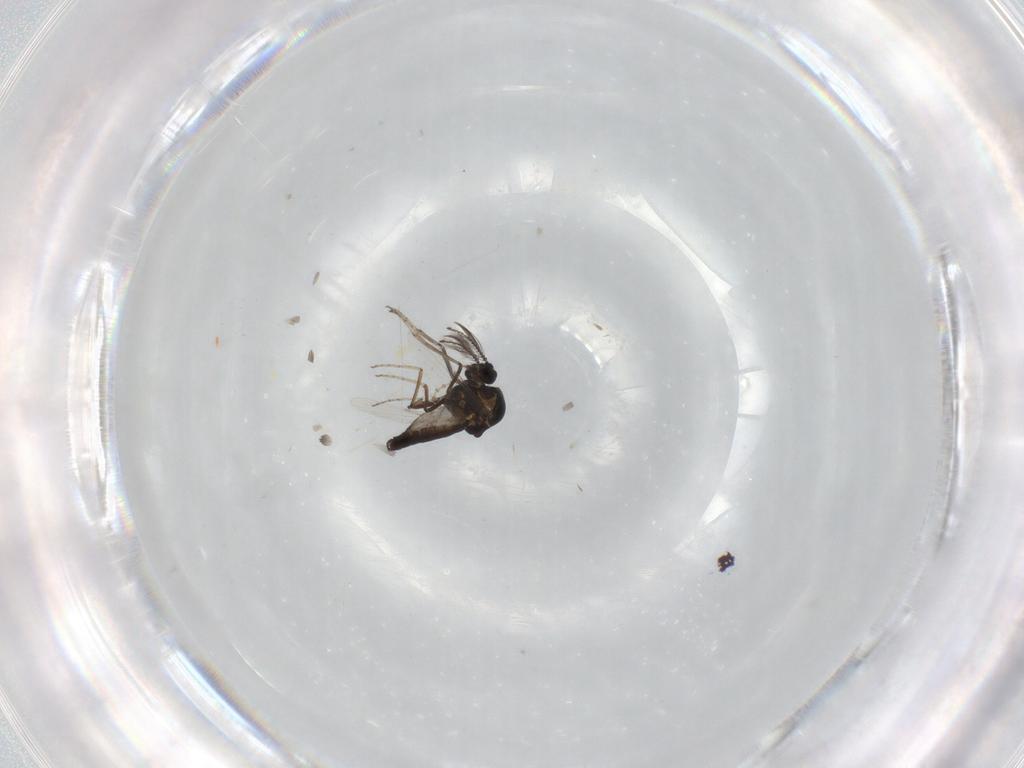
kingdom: Animalia
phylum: Arthropoda
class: Insecta
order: Diptera
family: Ceratopogonidae
